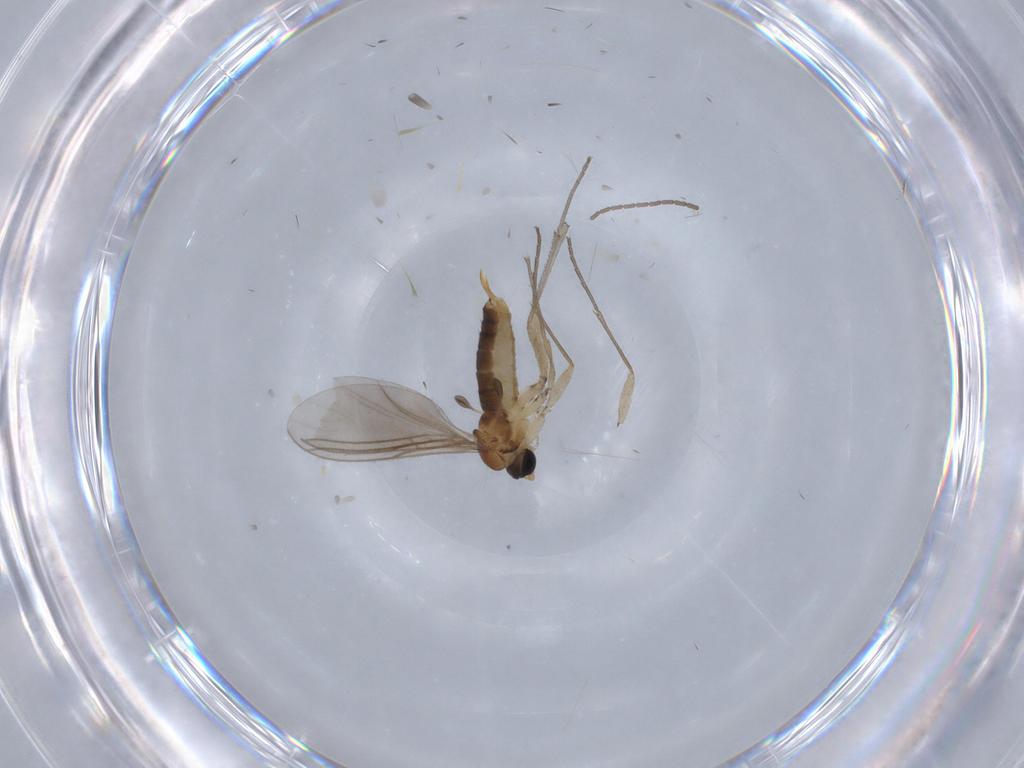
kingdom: Animalia
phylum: Arthropoda
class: Insecta
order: Diptera
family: Sciaridae
